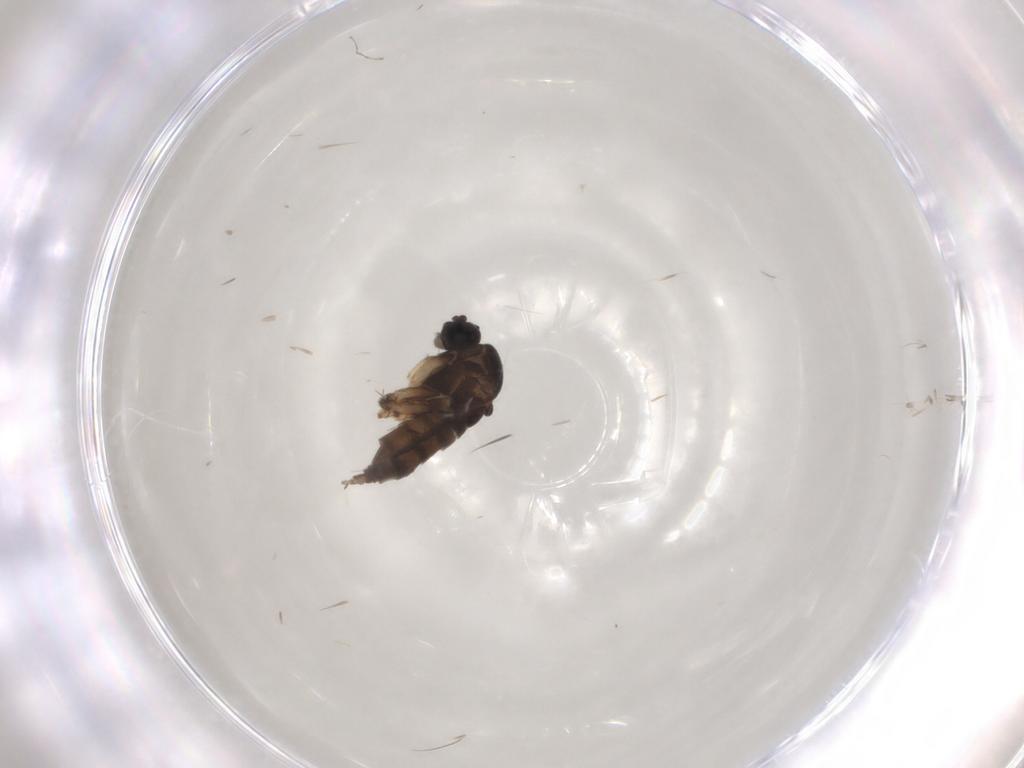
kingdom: Animalia
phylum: Arthropoda
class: Insecta
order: Diptera
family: Sciaridae
